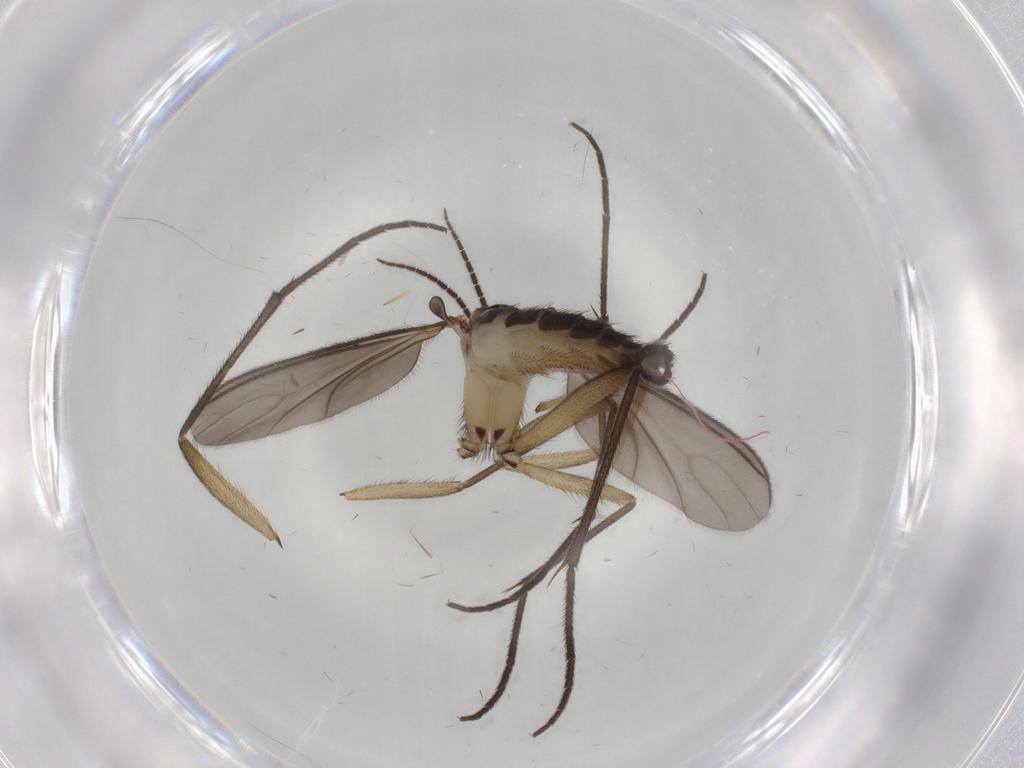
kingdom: Animalia
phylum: Arthropoda
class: Insecta
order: Diptera
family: Sciaridae
